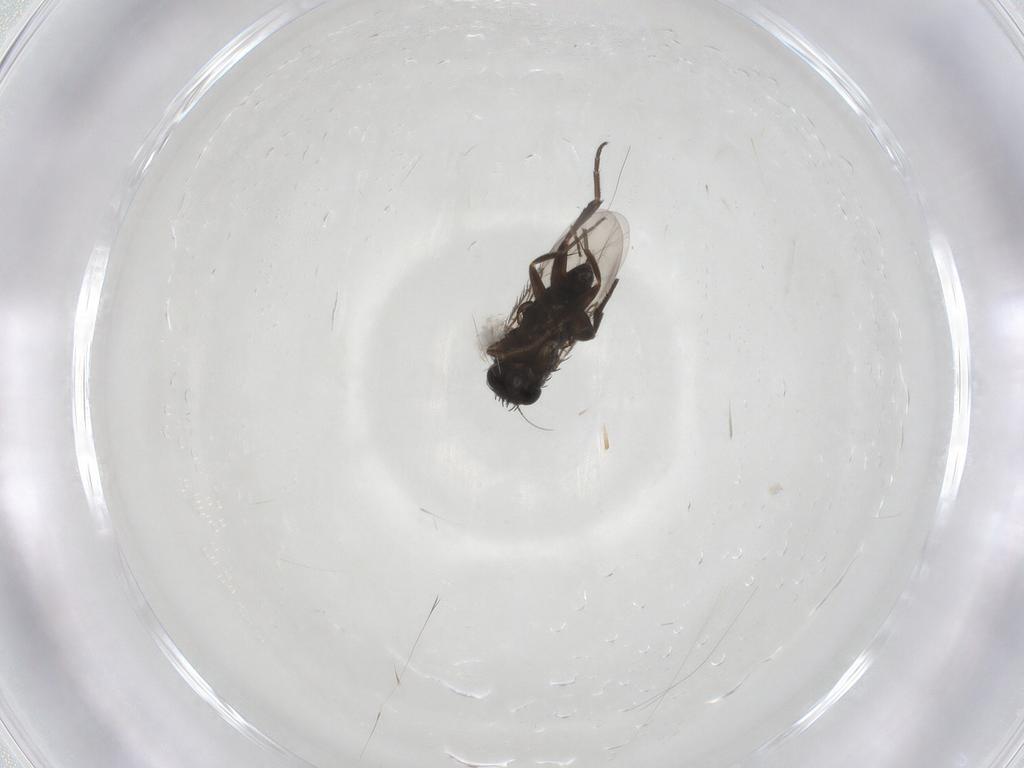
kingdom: Animalia
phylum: Arthropoda
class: Insecta
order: Diptera
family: Phoridae
